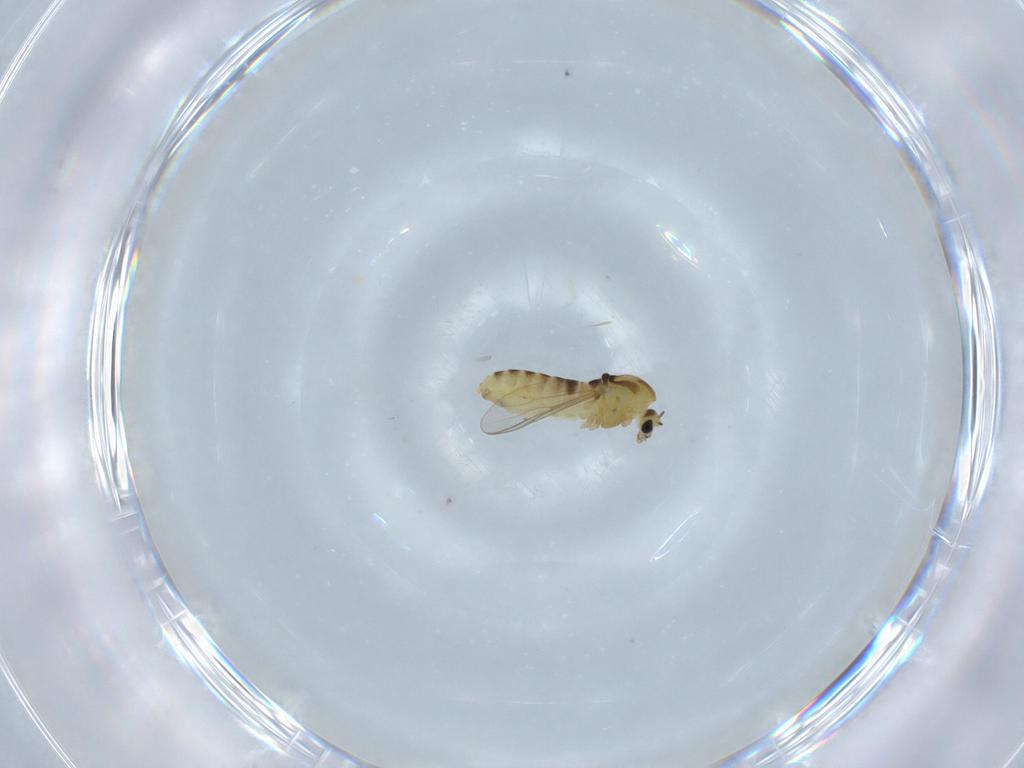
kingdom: Animalia
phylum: Arthropoda
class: Insecta
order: Diptera
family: Chironomidae
